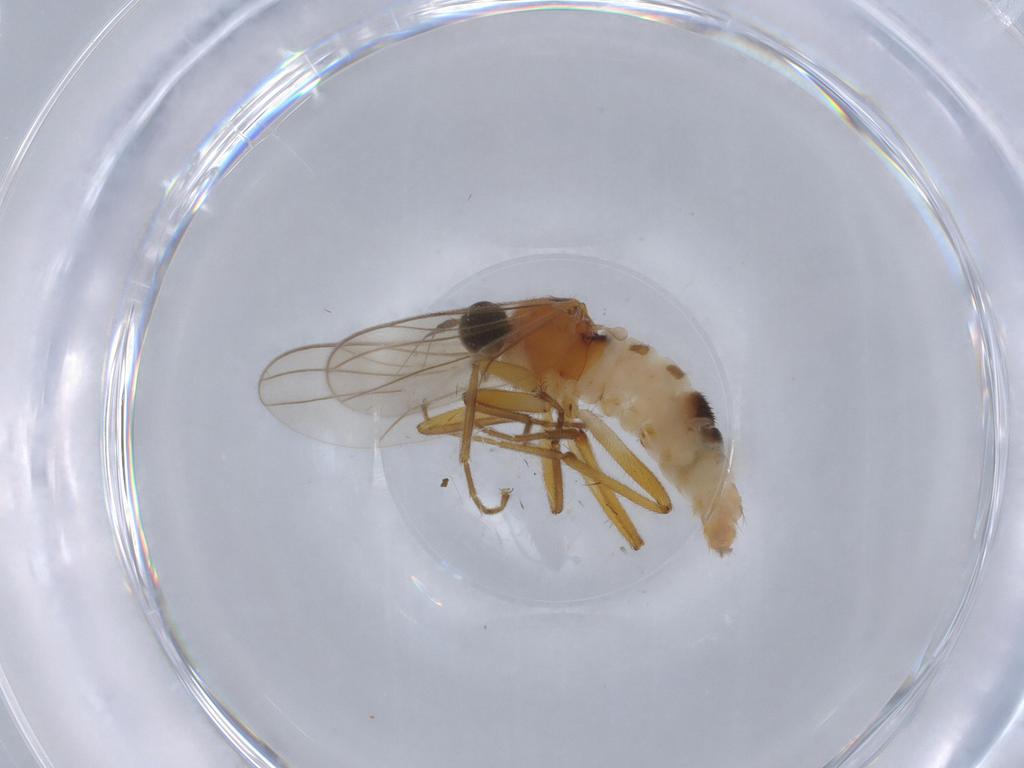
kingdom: Animalia
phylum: Arthropoda
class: Insecta
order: Diptera
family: Hybotidae
